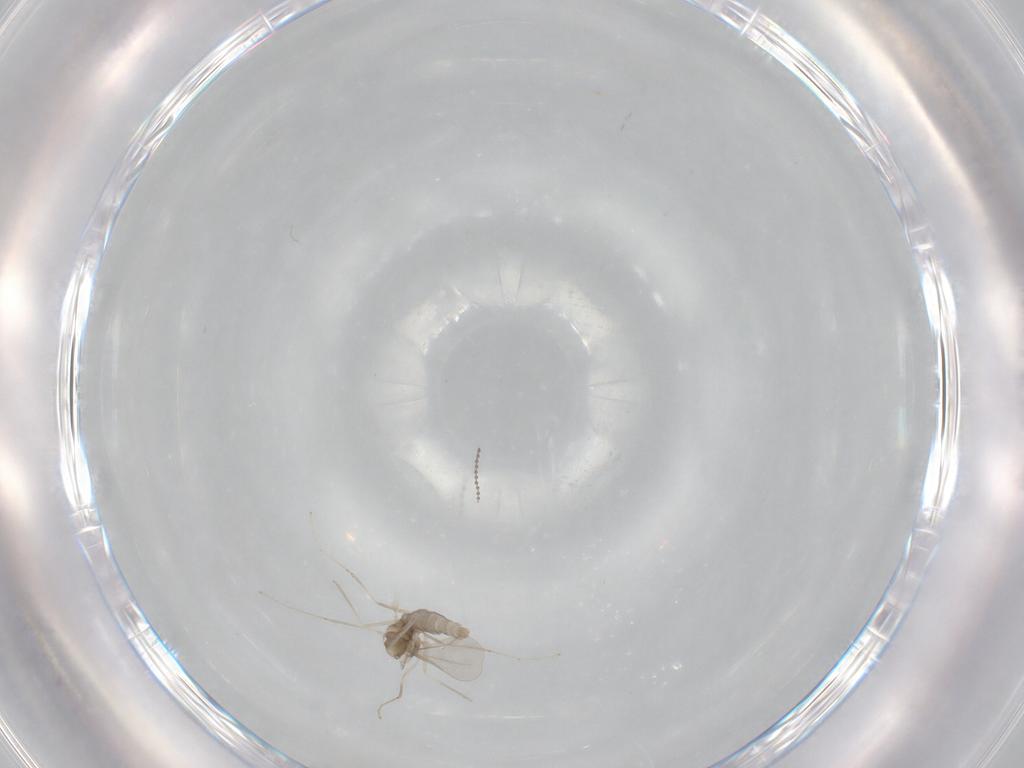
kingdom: Animalia
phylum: Arthropoda
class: Insecta
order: Diptera
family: Cecidomyiidae
